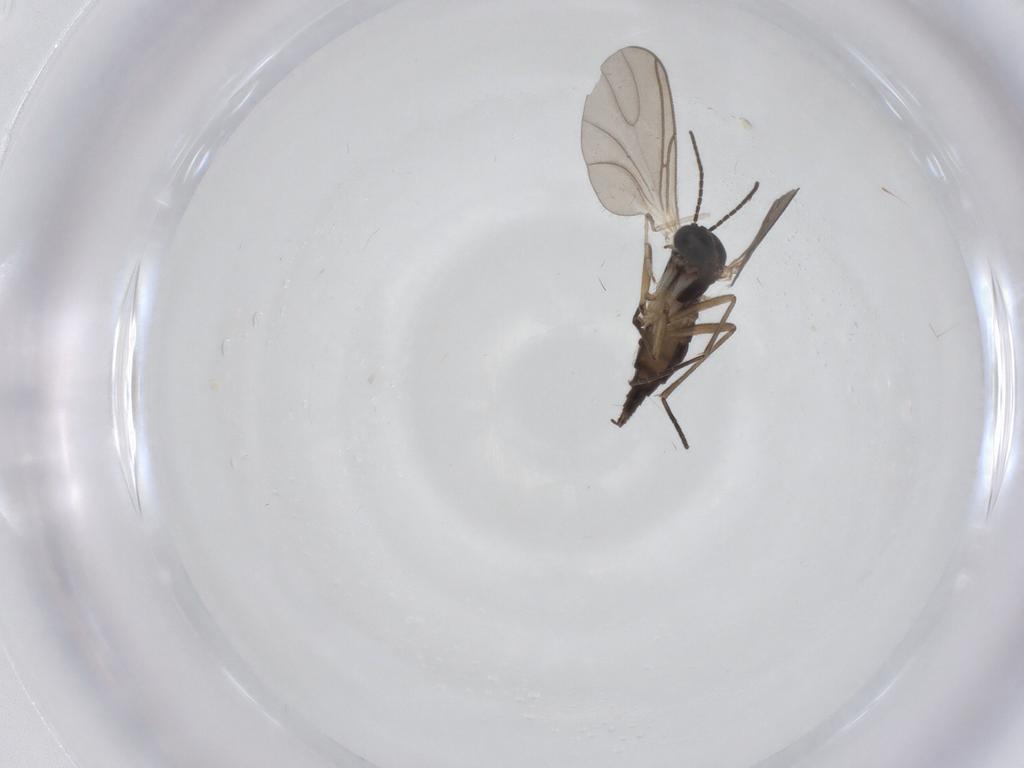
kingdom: Animalia
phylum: Arthropoda
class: Insecta
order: Diptera
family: Sciaridae
